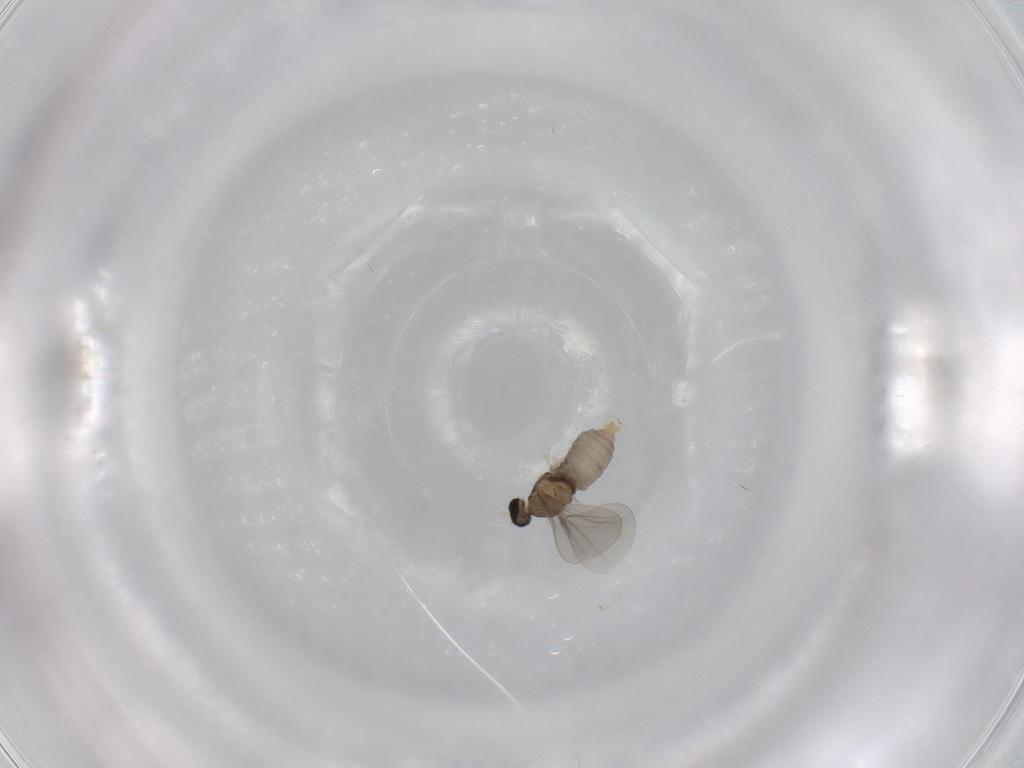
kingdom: Animalia
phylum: Arthropoda
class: Insecta
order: Diptera
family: Cecidomyiidae
